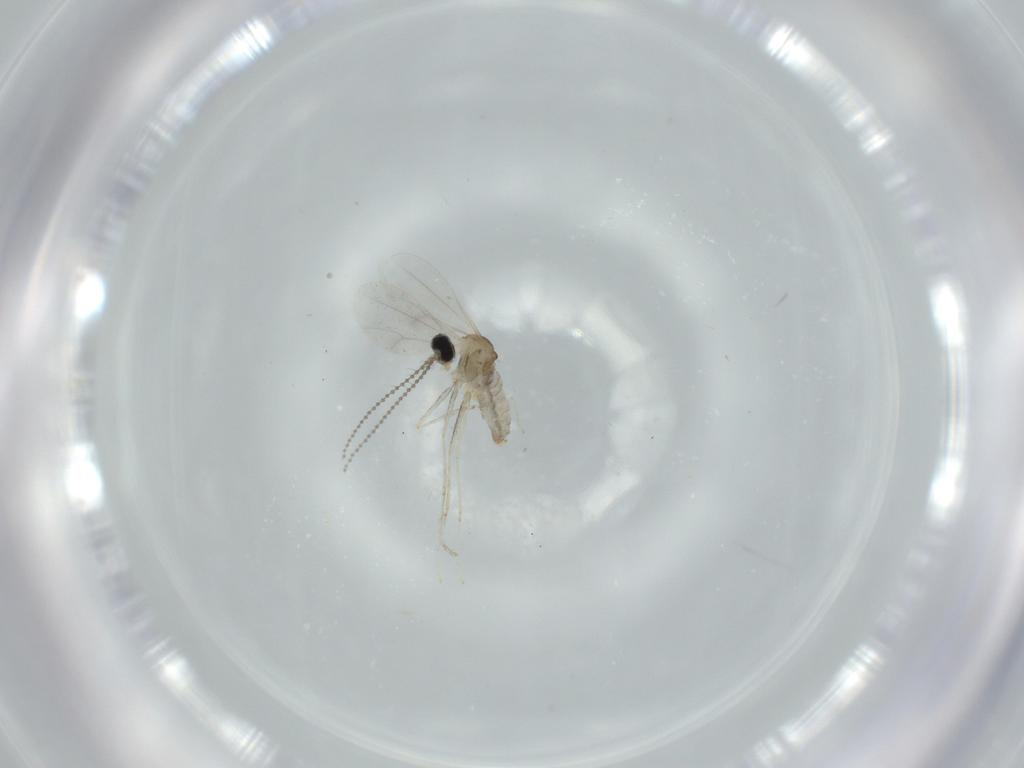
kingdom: Animalia
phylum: Arthropoda
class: Insecta
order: Diptera
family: Cecidomyiidae
